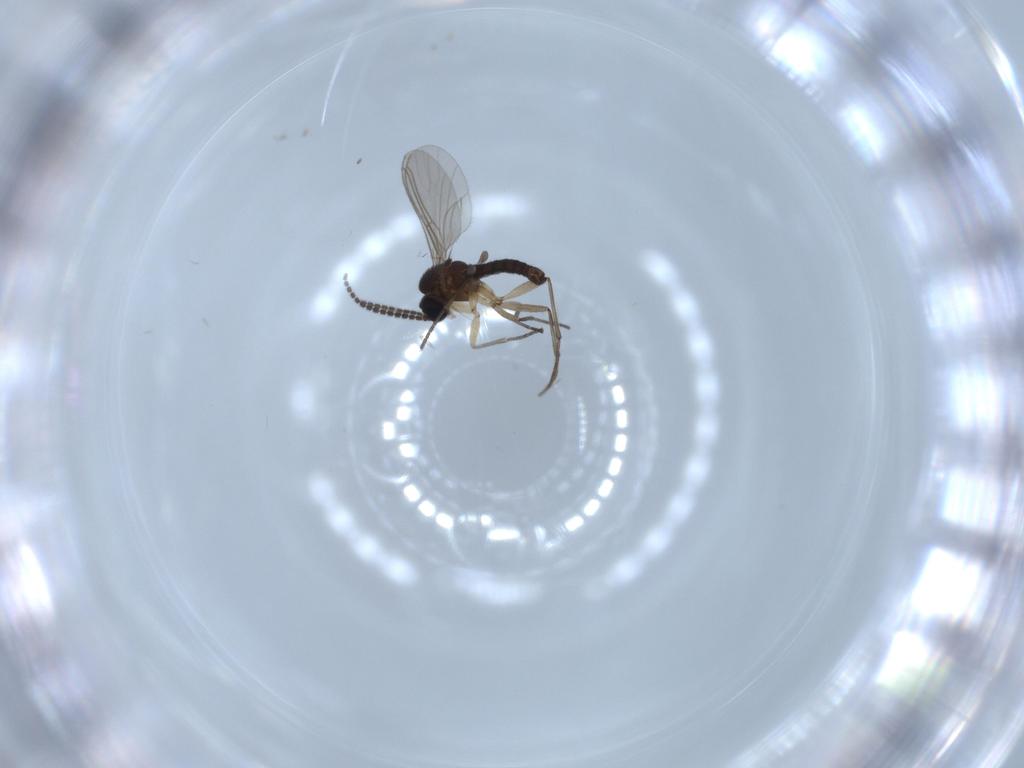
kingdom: Animalia
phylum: Arthropoda
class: Insecta
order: Diptera
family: Sciaridae
